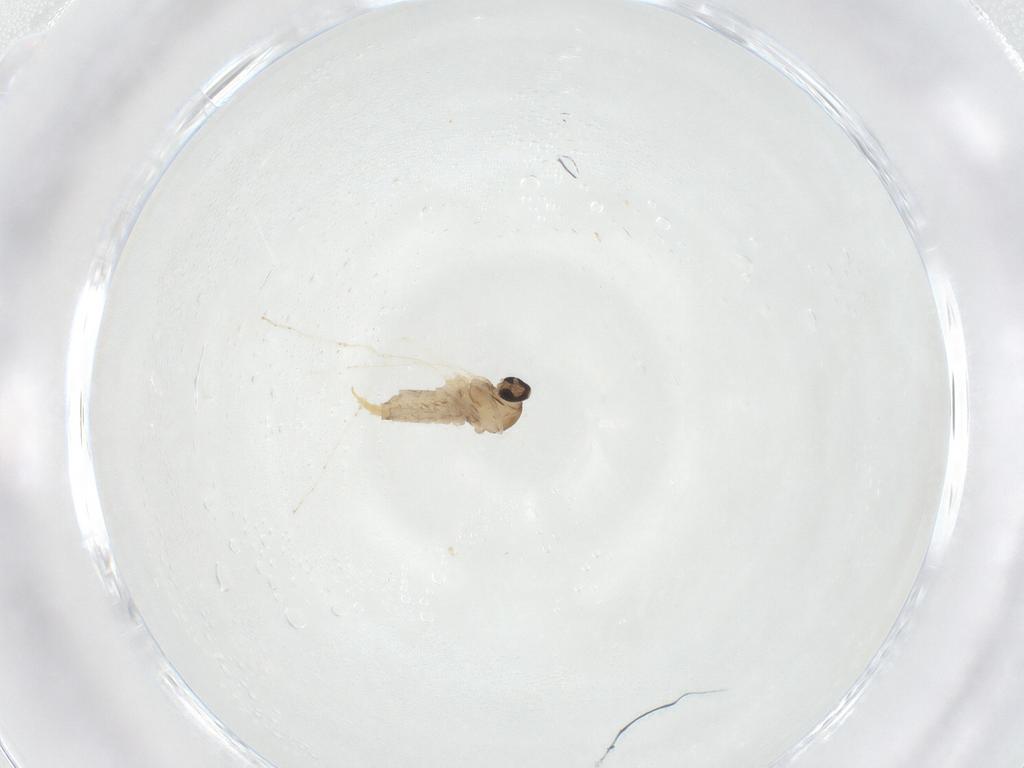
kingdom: Animalia
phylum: Arthropoda
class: Insecta
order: Diptera
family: Cecidomyiidae
